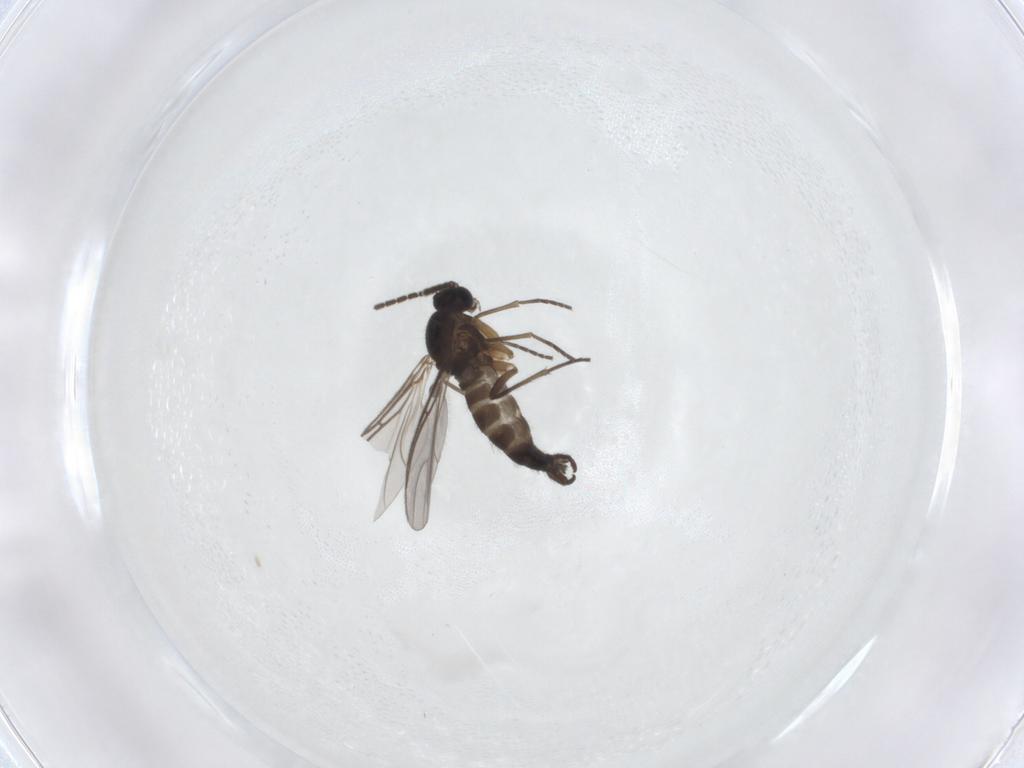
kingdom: Animalia
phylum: Arthropoda
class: Insecta
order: Diptera
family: Sciaridae
